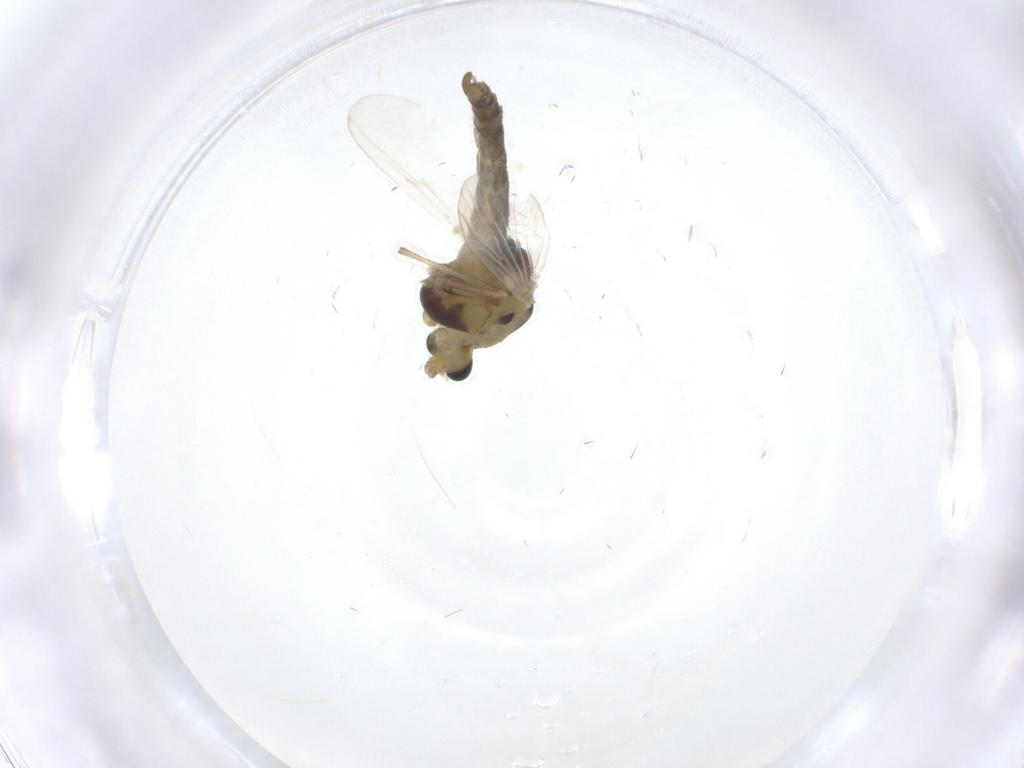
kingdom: Animalia
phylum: Arthropoda
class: Insecta
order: Diptera
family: Chironomidae
